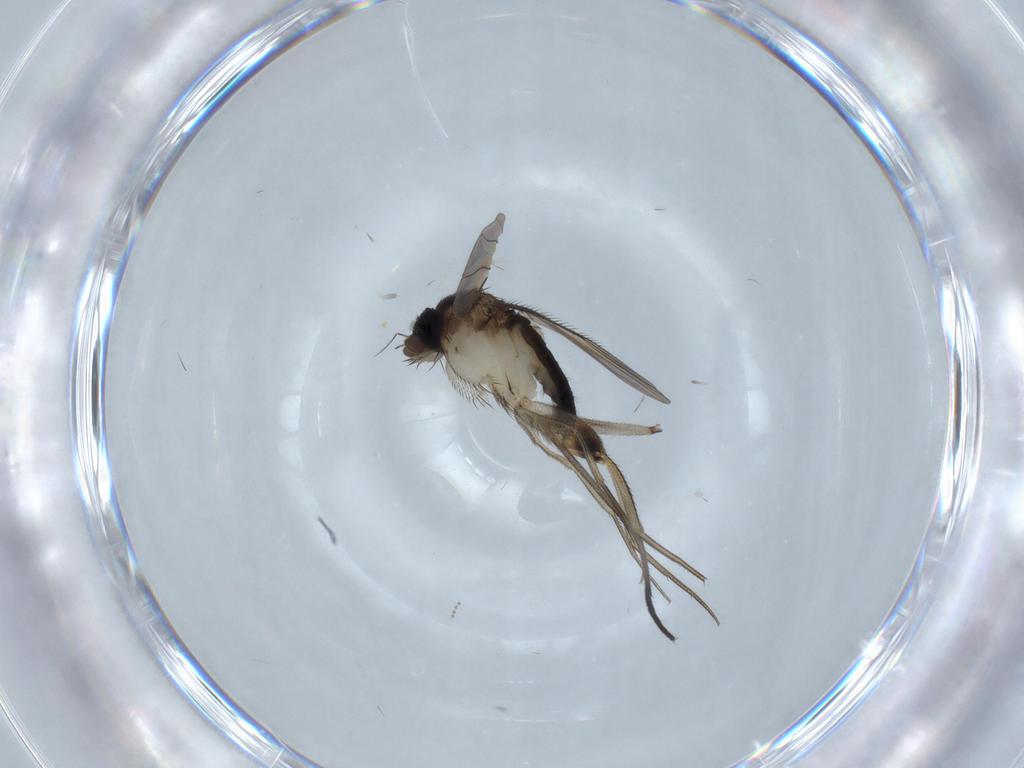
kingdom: Animalia
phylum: Arthropoda
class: Insecta
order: Diptera
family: Phoridae
